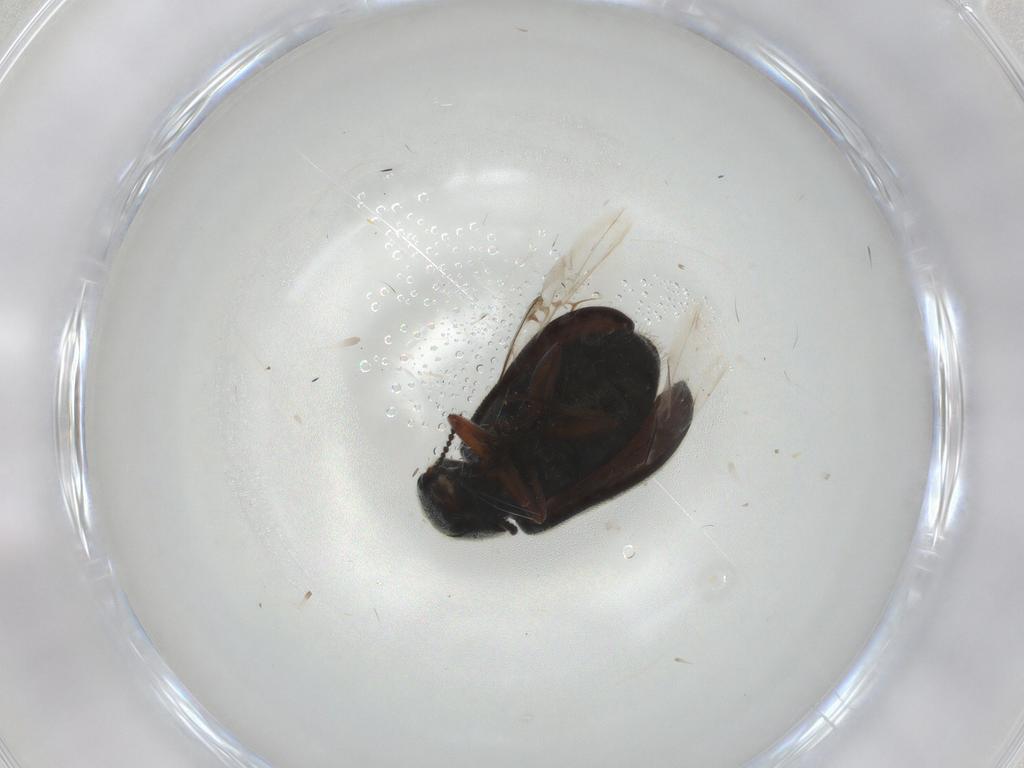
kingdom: Animalia
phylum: Arthropoda
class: Insecta
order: Coleoptera
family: Melyridae
